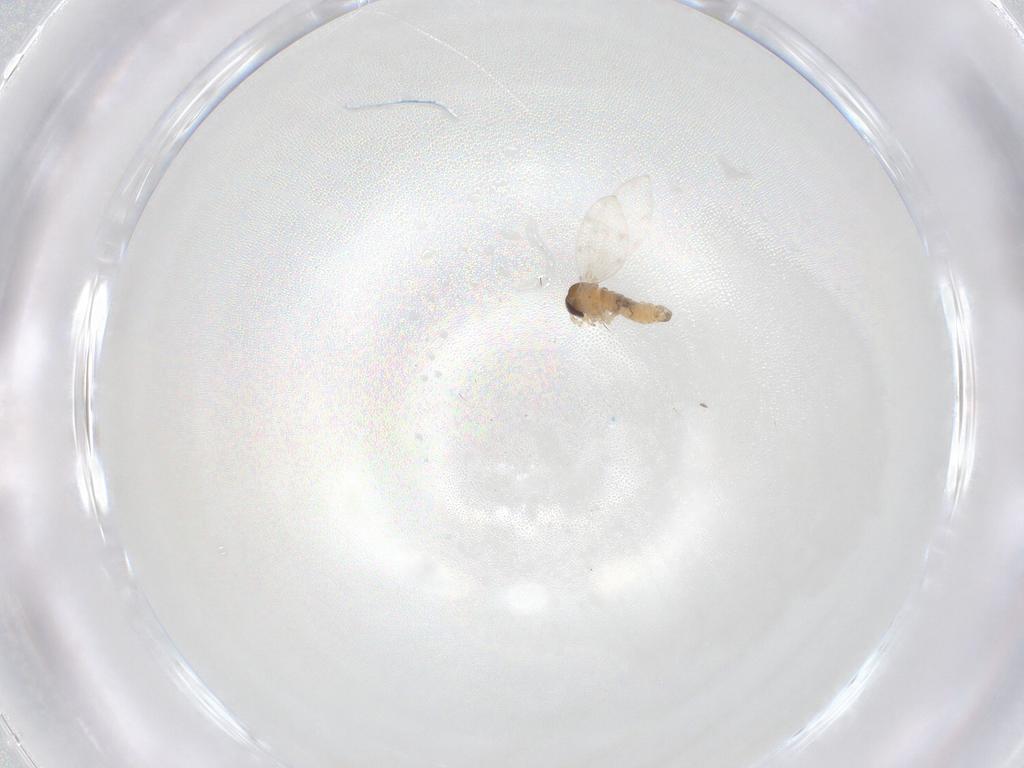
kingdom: Animalia
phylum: Arthropoda
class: Insecta
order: Diptera
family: Psychodidae
